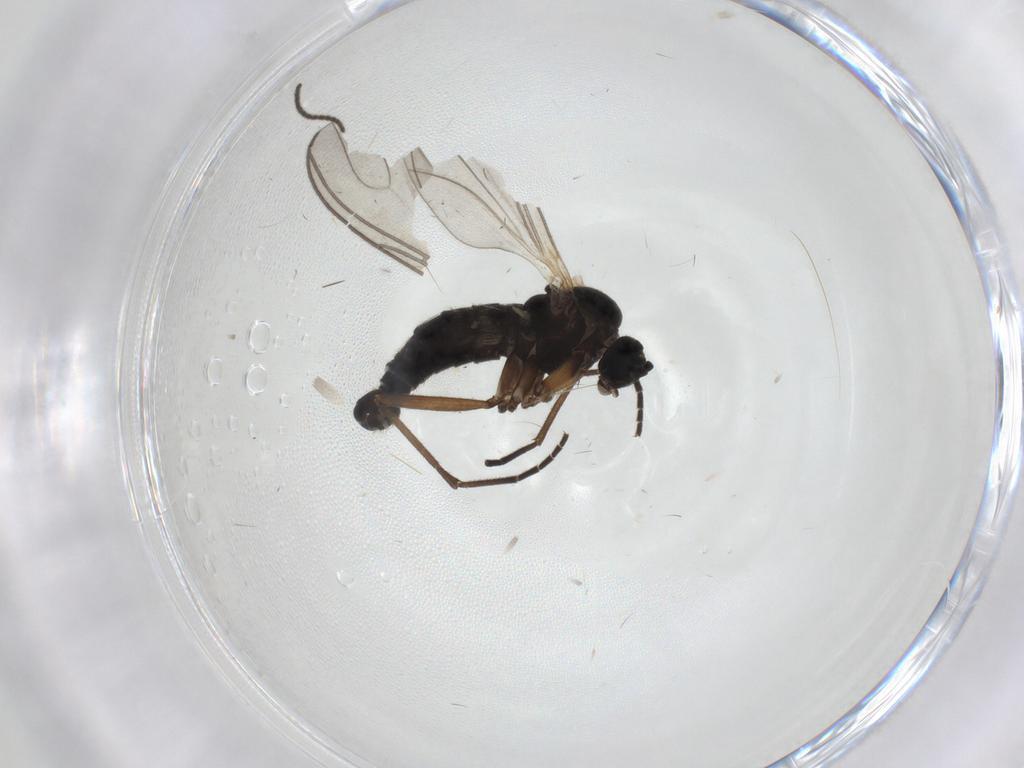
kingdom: Animalia
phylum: Arthropoda
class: Insecta
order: Diptera
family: Sciaridae
